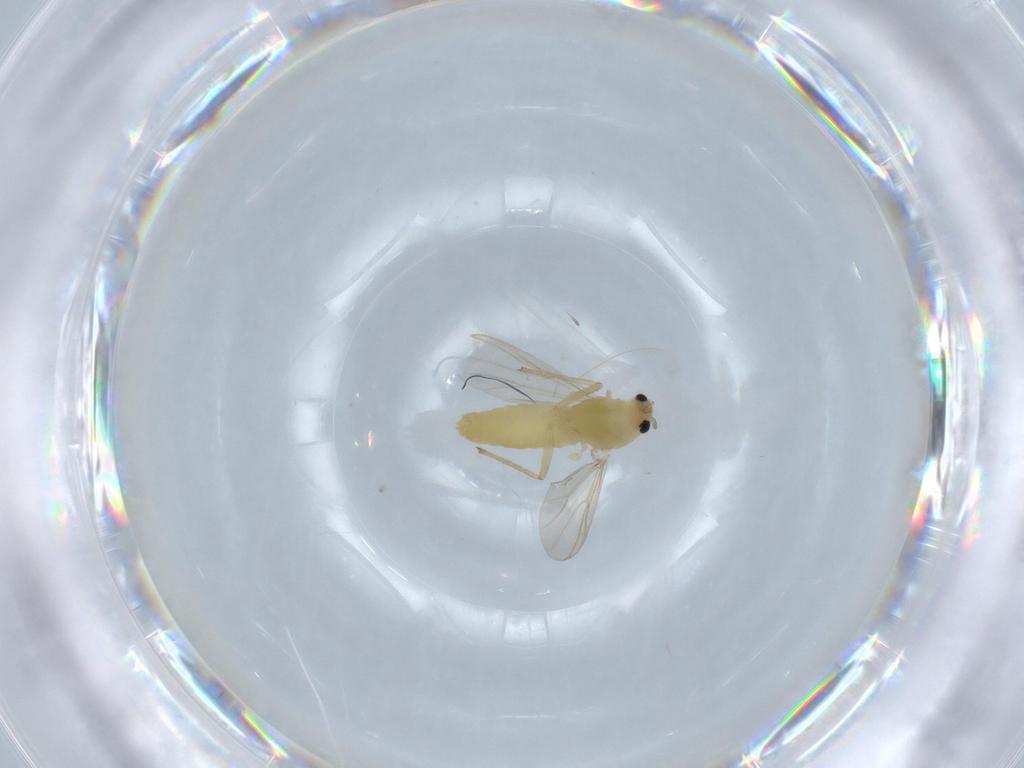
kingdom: Animalia
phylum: Arthropoda
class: Insecta
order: Diptera
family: Chironomidae
